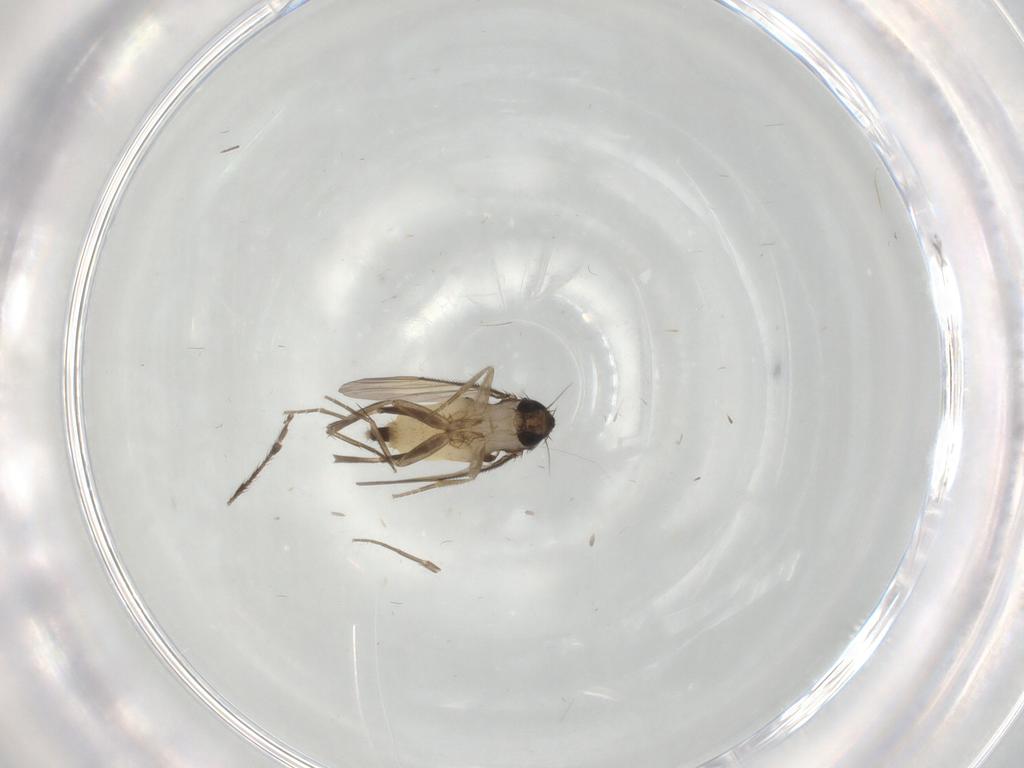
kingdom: Animalia
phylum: Arthropoda
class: Insecta
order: Diptera
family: Phoridae
